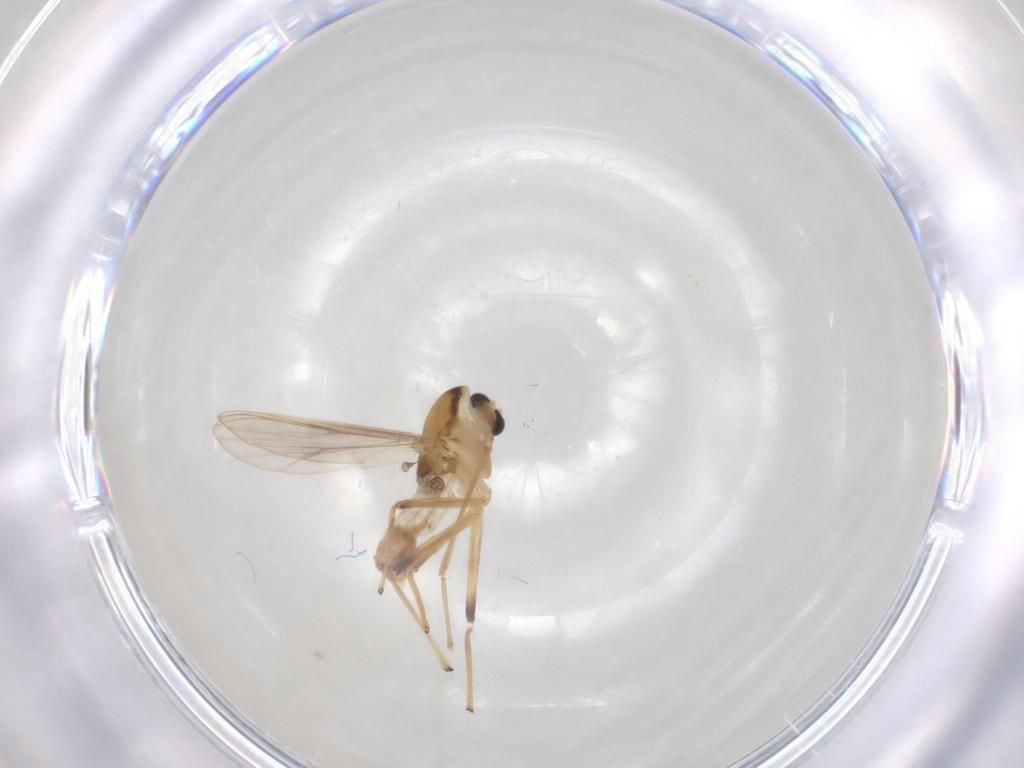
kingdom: Animalia
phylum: Arthropoda
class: Insecta
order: Diptera
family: Chironomidae
